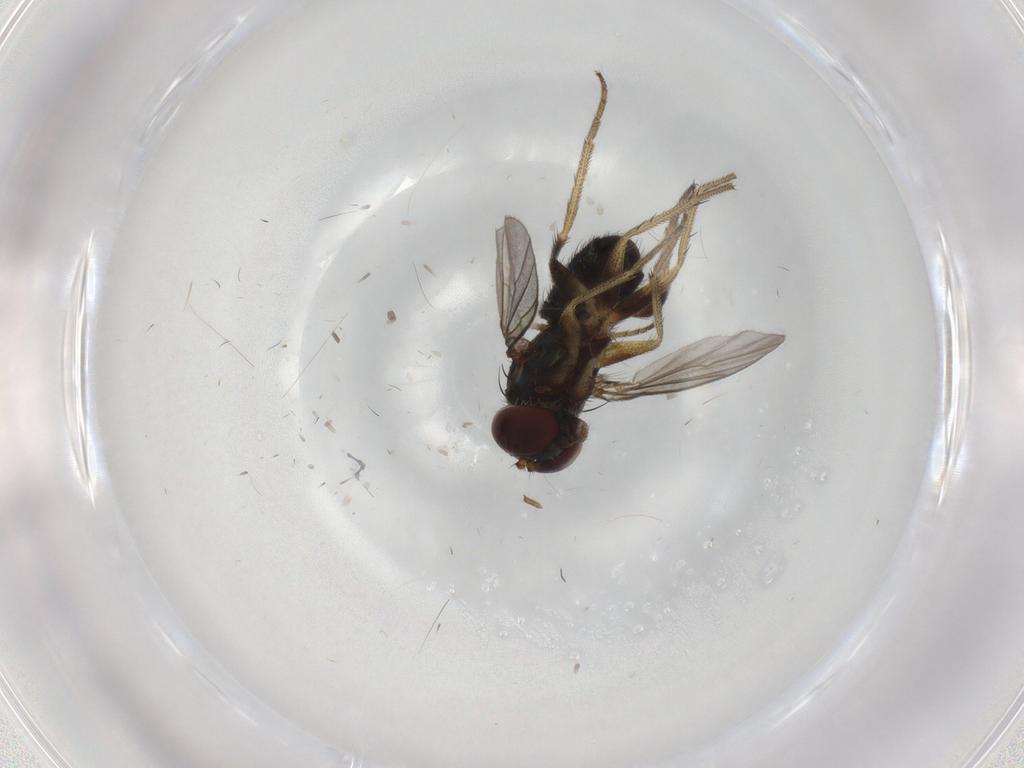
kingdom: Animalia
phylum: Arthropoda
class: Insecta
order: Diptera
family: Dolichopodidae
